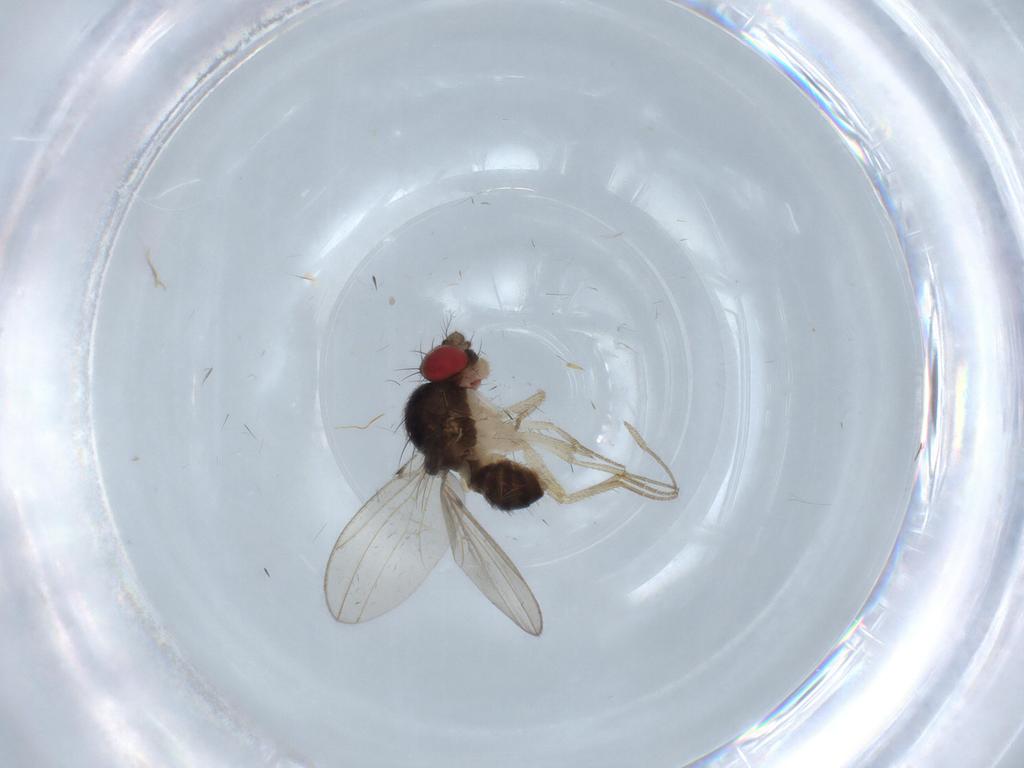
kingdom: Animalia
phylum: Arthropoda
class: Insecta
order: Diptera
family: Drosophilidae
